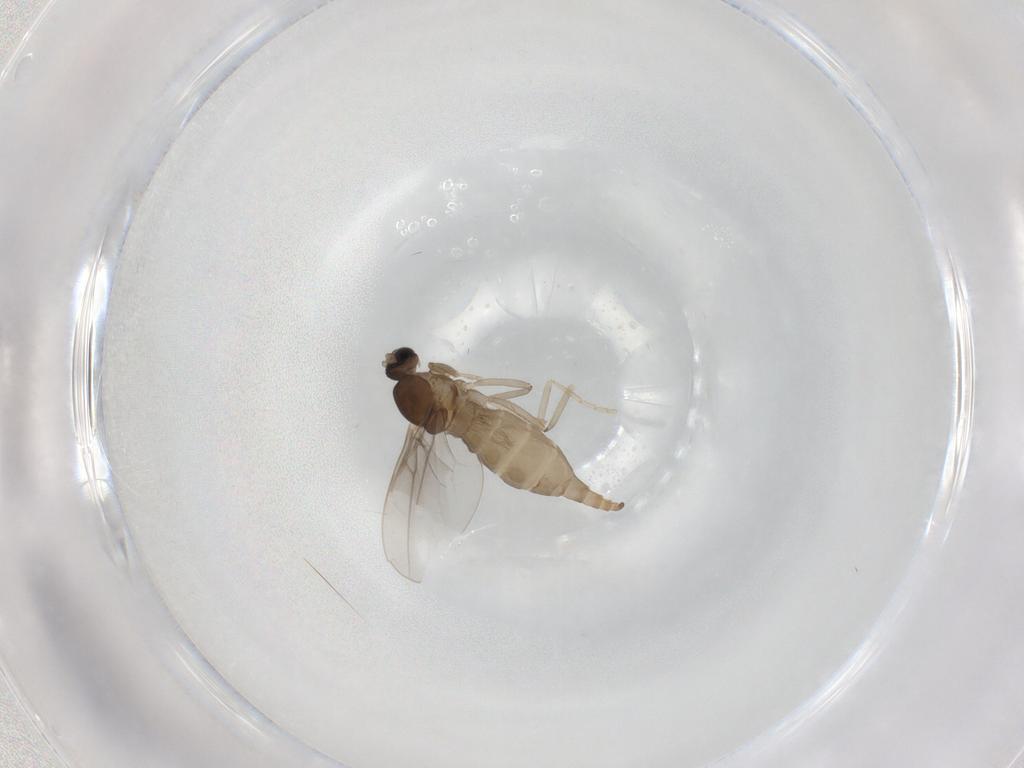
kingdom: Animalia
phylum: Arthropoda
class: Insecta
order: Diptera
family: Cecidomyiidae
